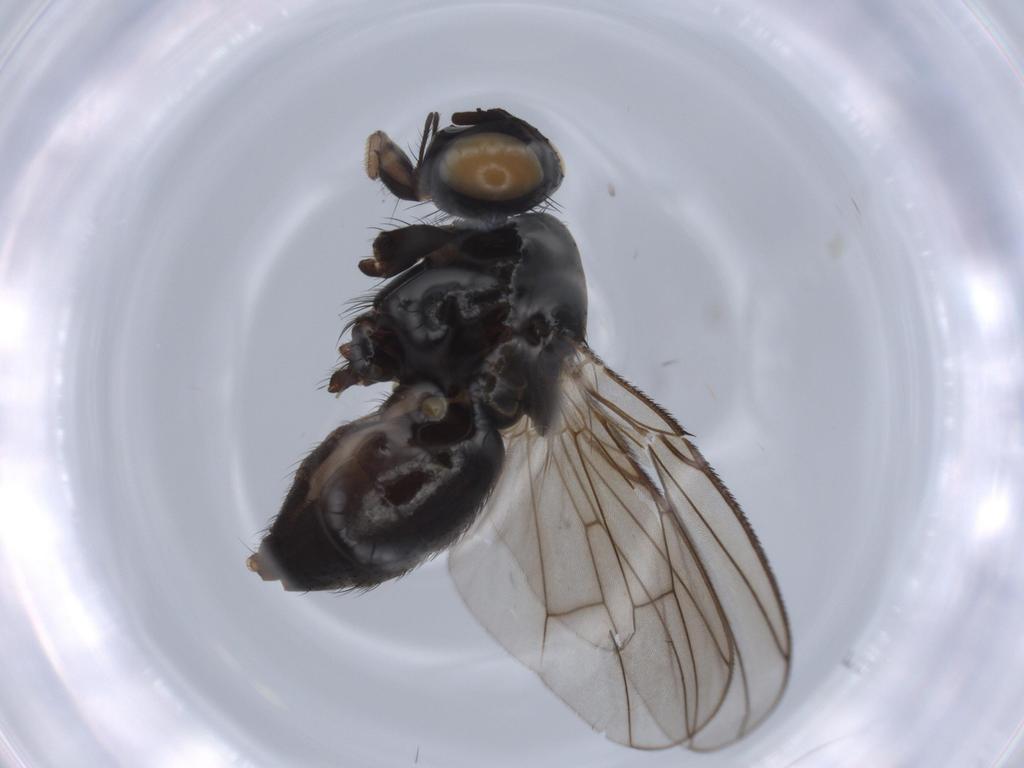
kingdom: Animalia
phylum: Arthropoda
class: Insecta
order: Diptera
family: Muscidae
